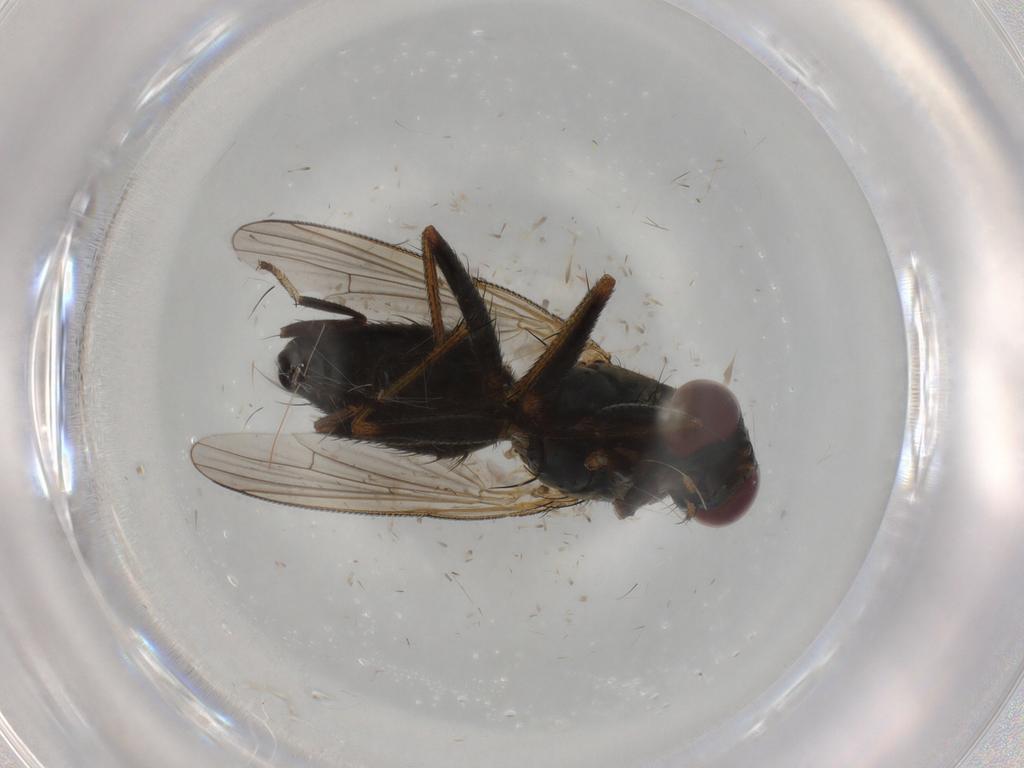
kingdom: Animalia
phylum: Arthropoda
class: Insecta
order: Diptera
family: Muscidae
